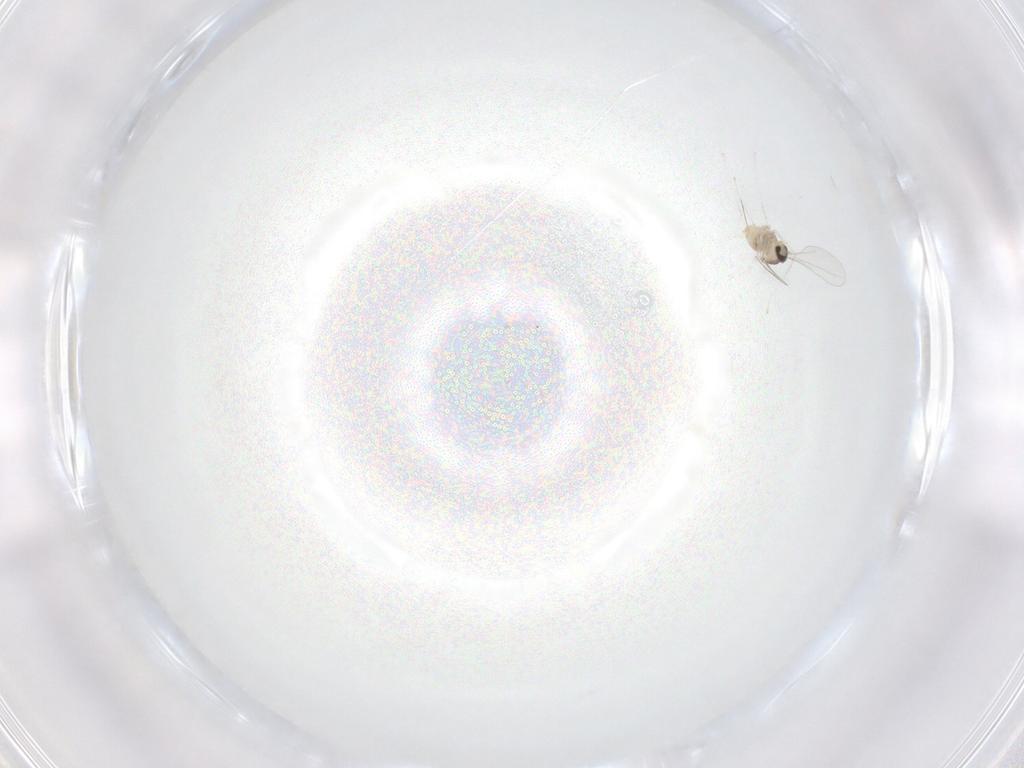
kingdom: Animalia
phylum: Arthropoda
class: Insecta
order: Diptera
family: Cecidomyiidae
